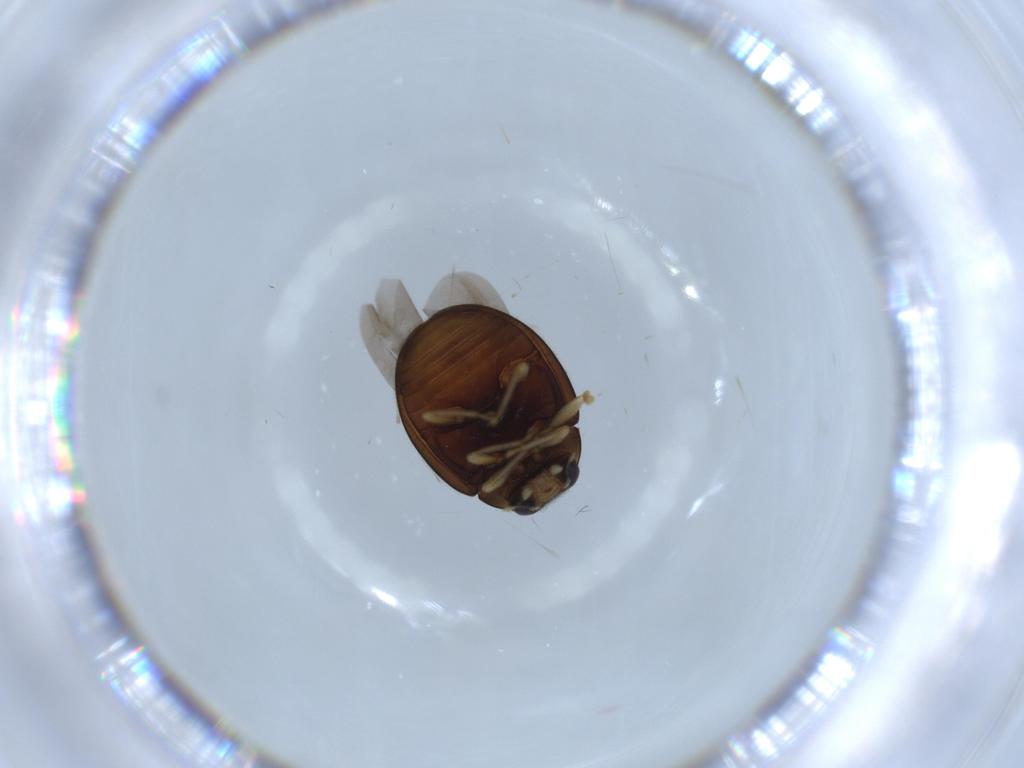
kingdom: Animalia
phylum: Arthropoda
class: Insecta
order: Coleoptera
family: Coccinellidae
